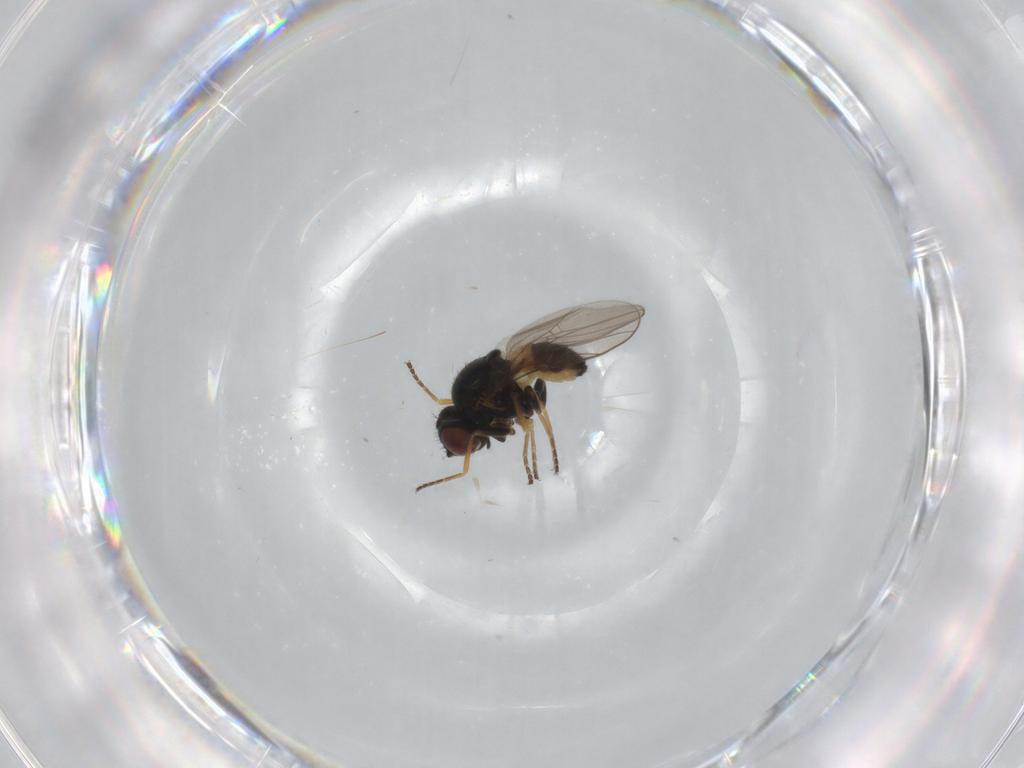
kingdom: Animalia
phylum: Arthropoda
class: Insecta
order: Diptera
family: Chloropidae
